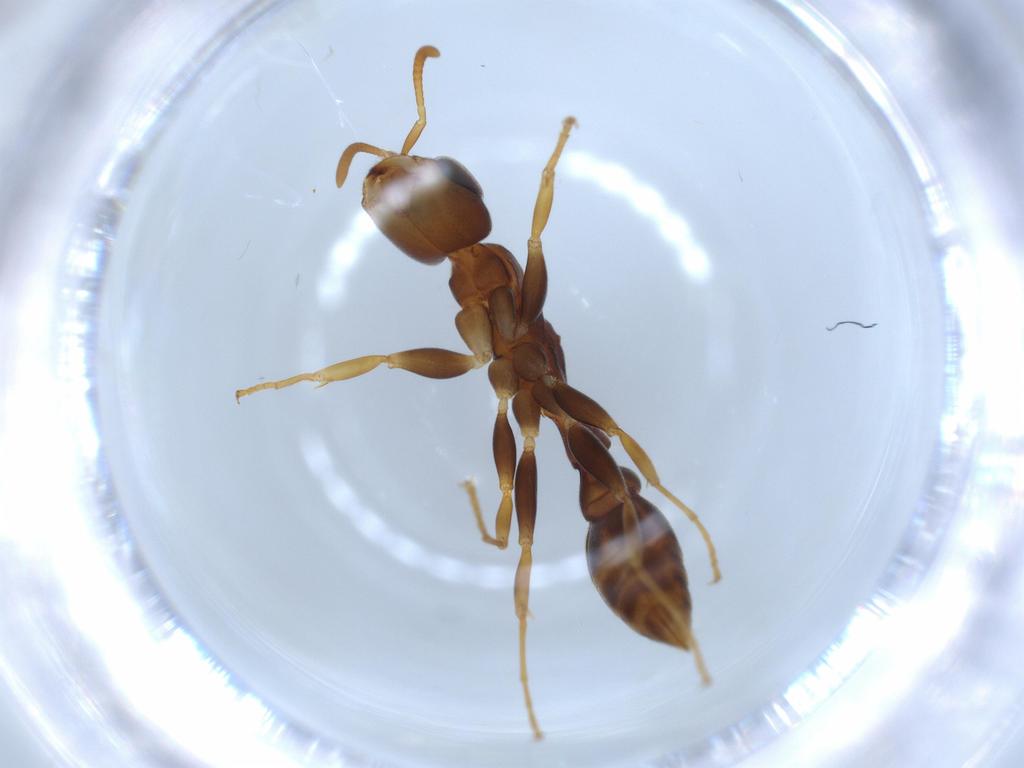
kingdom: Animalia
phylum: Arthropoda
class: Insecta
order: Hymenoptera
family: Formicidae
